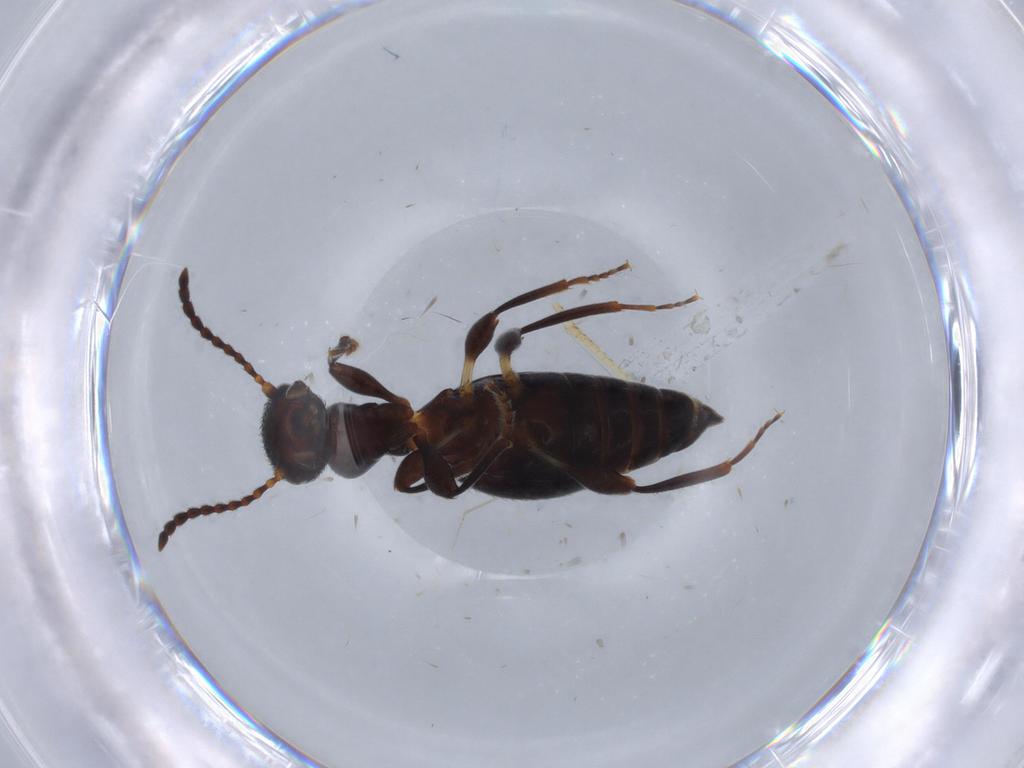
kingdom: Animalia
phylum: Arthropoda
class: Insecta
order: Coleoptera
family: Anthicidae
